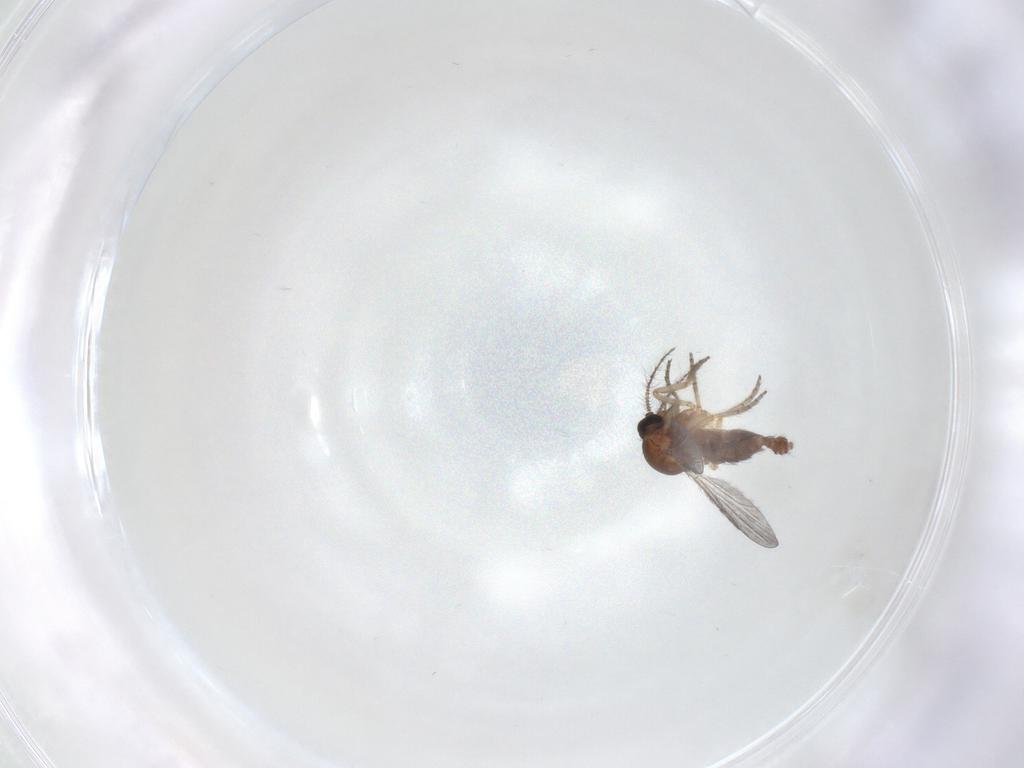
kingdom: Animalia
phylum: Arthropoda
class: Insecta
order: Diptera
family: Ceratopogonidae
